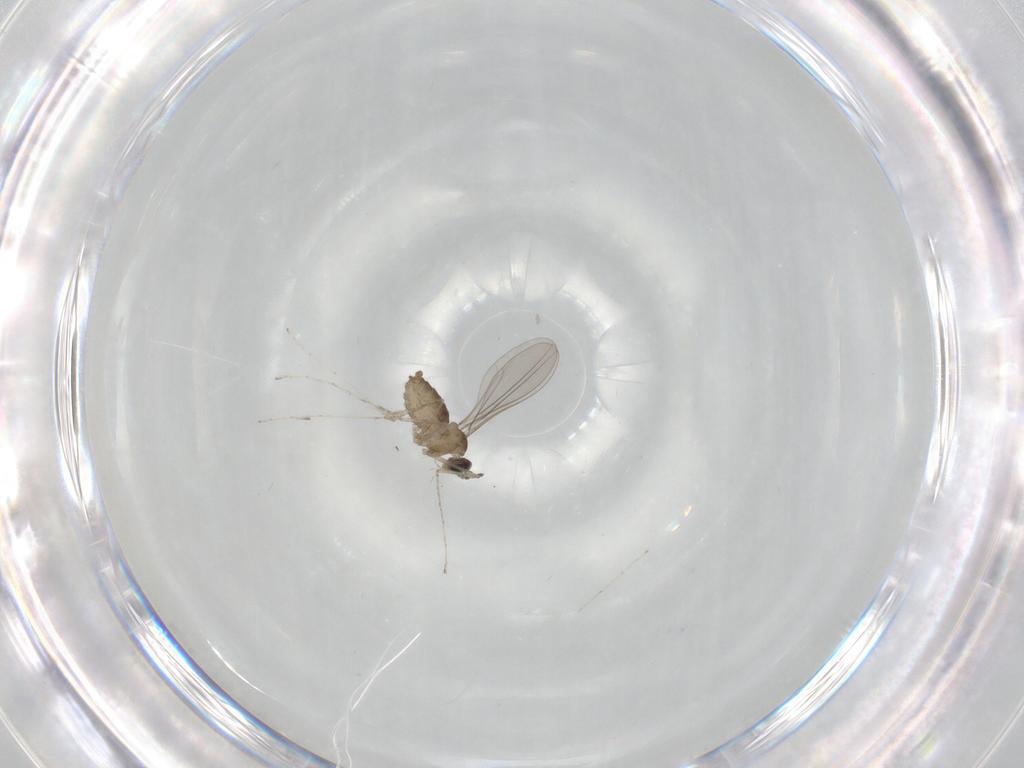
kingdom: Animalia
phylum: Arthropoda
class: Insecta
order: Diptera
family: Cecidomyiidae
